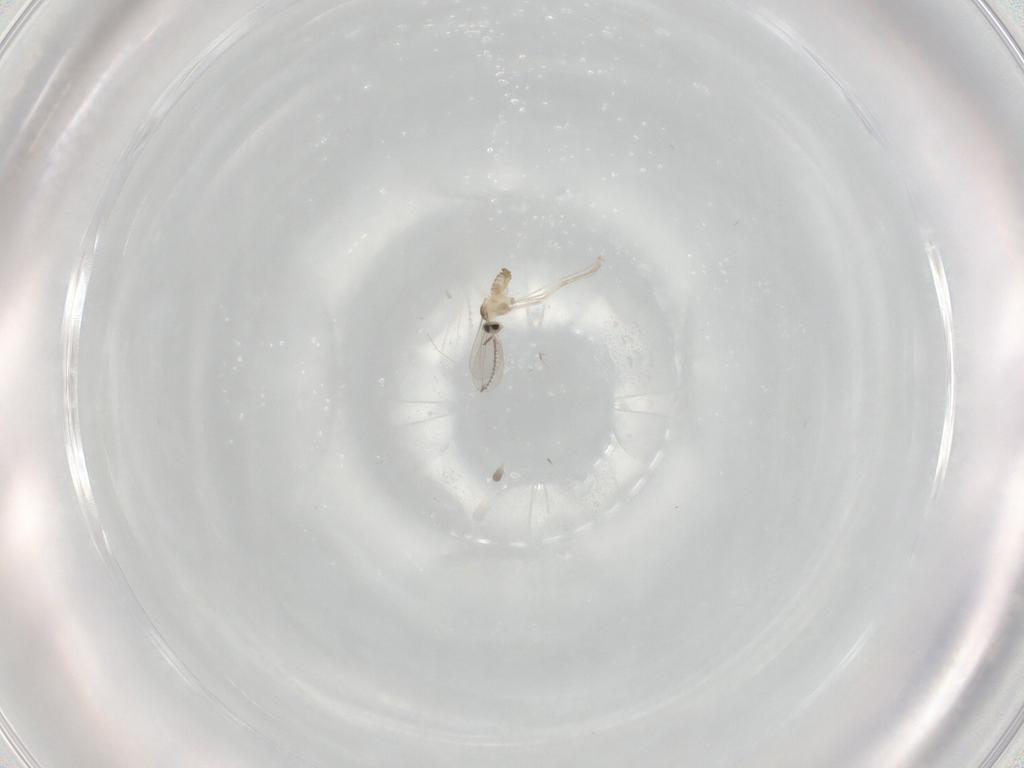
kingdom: Animalia
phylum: Arthropoda
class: Insecta
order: Diptera
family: Cecidomyiidae
